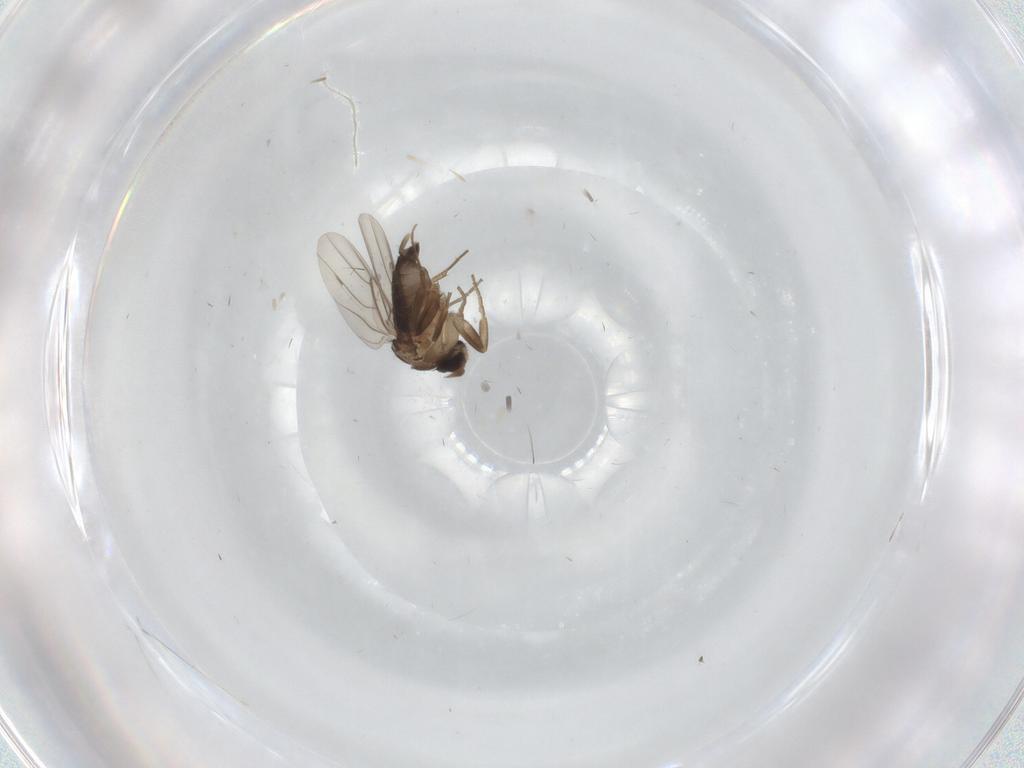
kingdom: Animalia
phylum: Arthropoda
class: Insecta
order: Diptera
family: Phoridae
